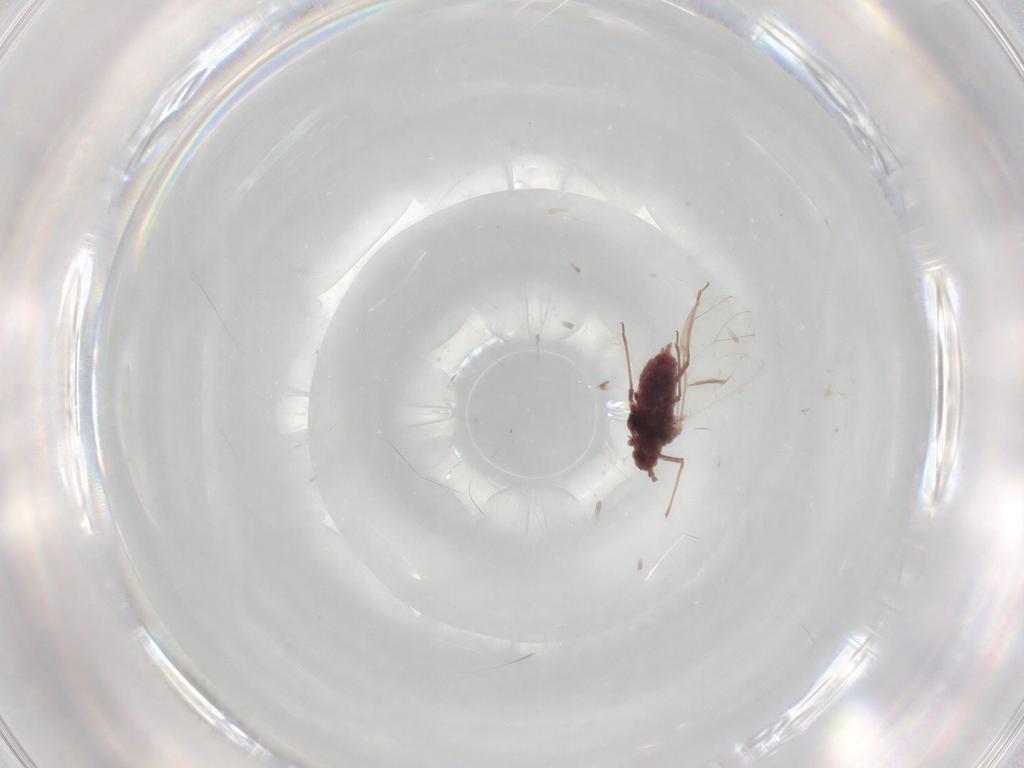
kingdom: Animalia
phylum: Arthropoda
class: Insecta
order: Hemiptera
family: Aphididae
